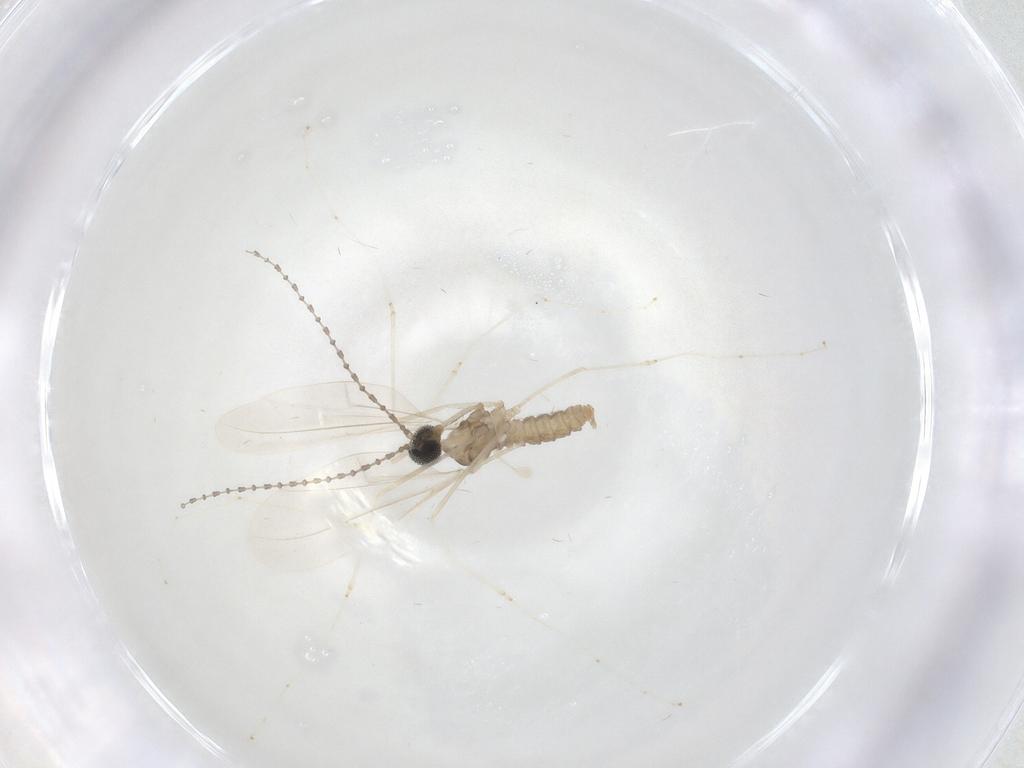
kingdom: Animalia
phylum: Arthropoda
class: Insecta
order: Diptera
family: Cecidomyiidae
